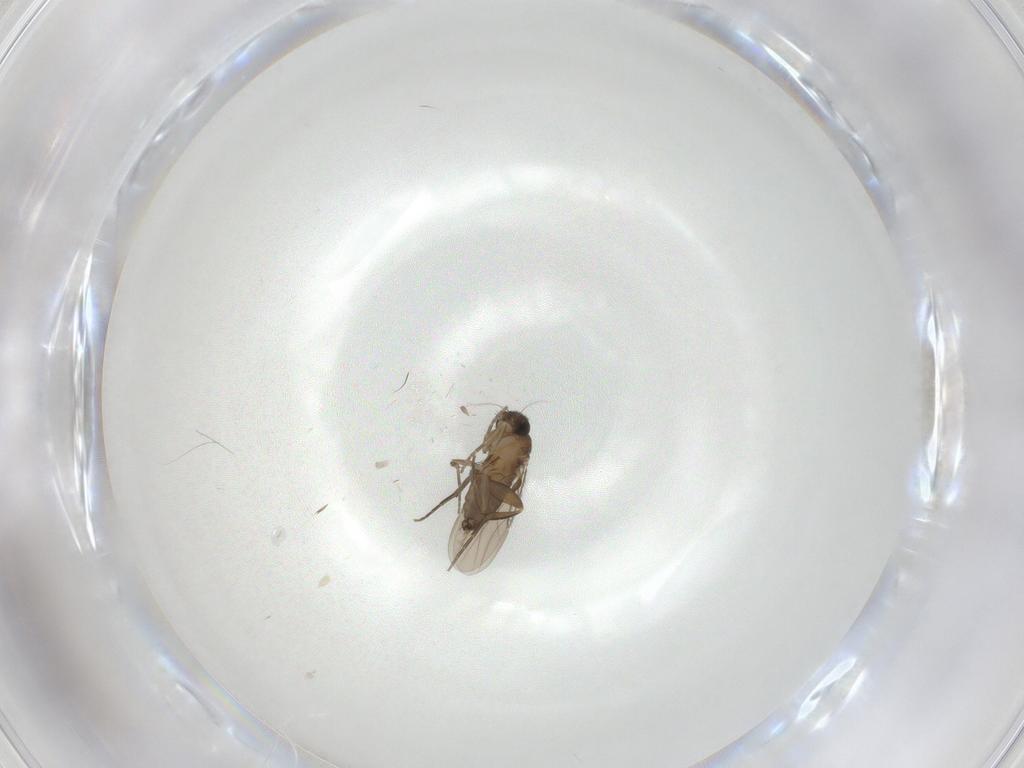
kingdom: Animalia
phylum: Arthropoda
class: Insecta
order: Diptera
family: Phoridae
